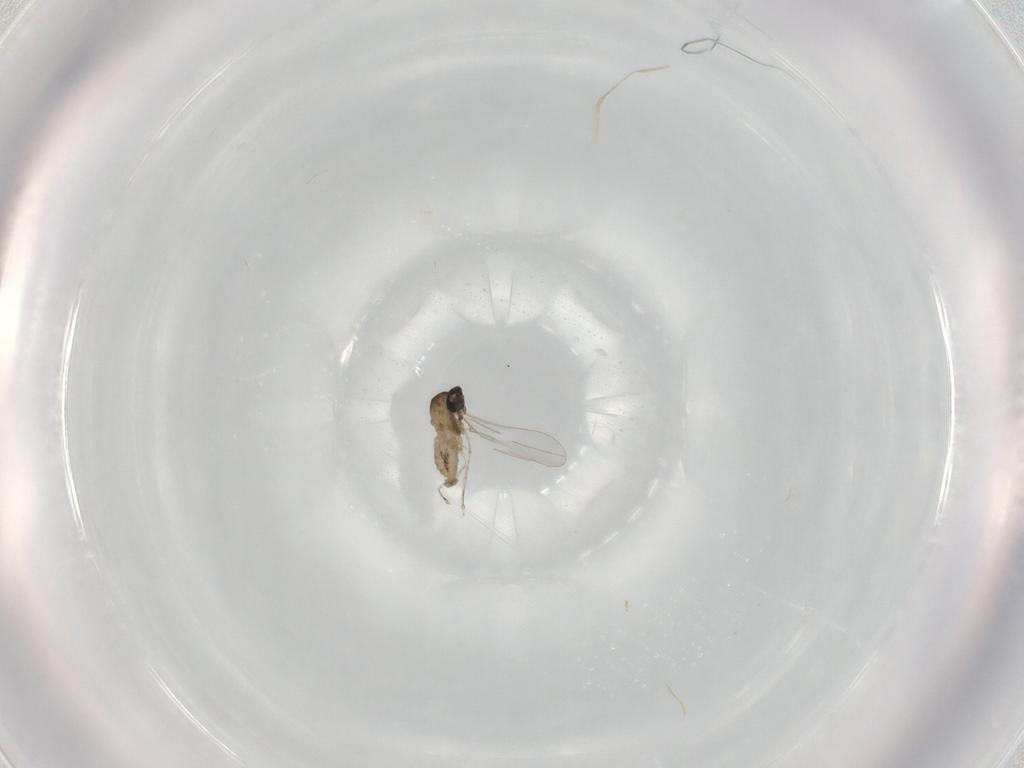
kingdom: Animalia
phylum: Arthropoda
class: Insecta
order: Diptera
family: Cecidomyiidae
